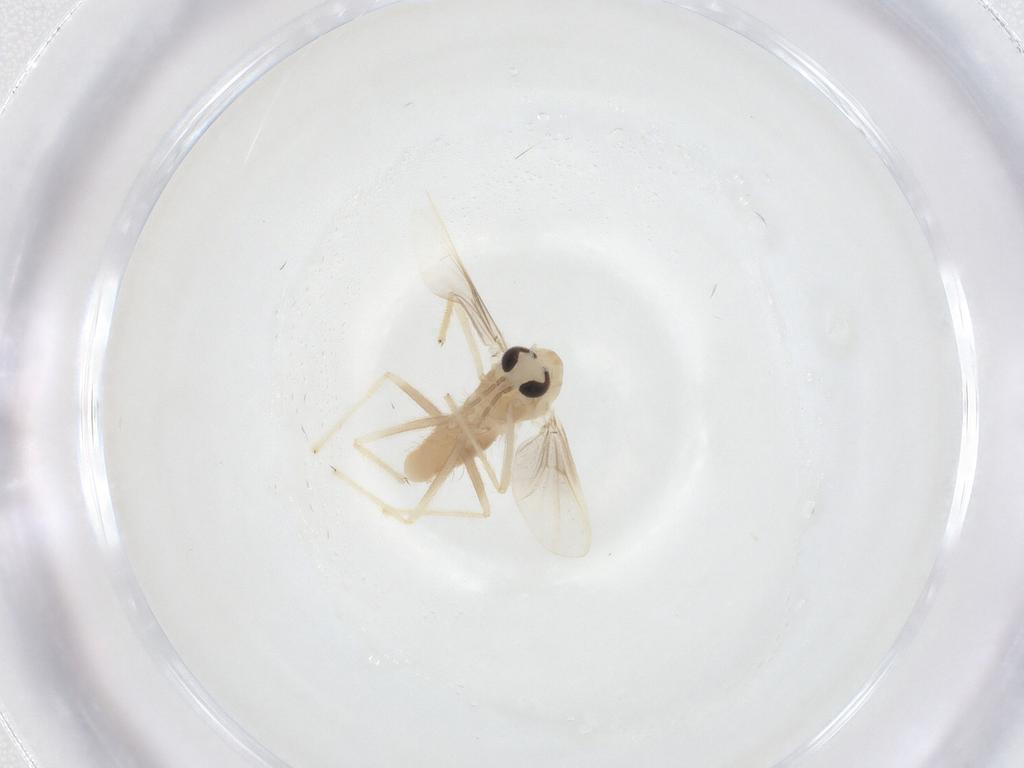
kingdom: Animalia
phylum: Arthropoda
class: Insecta
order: Diptera
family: Chironomidae
